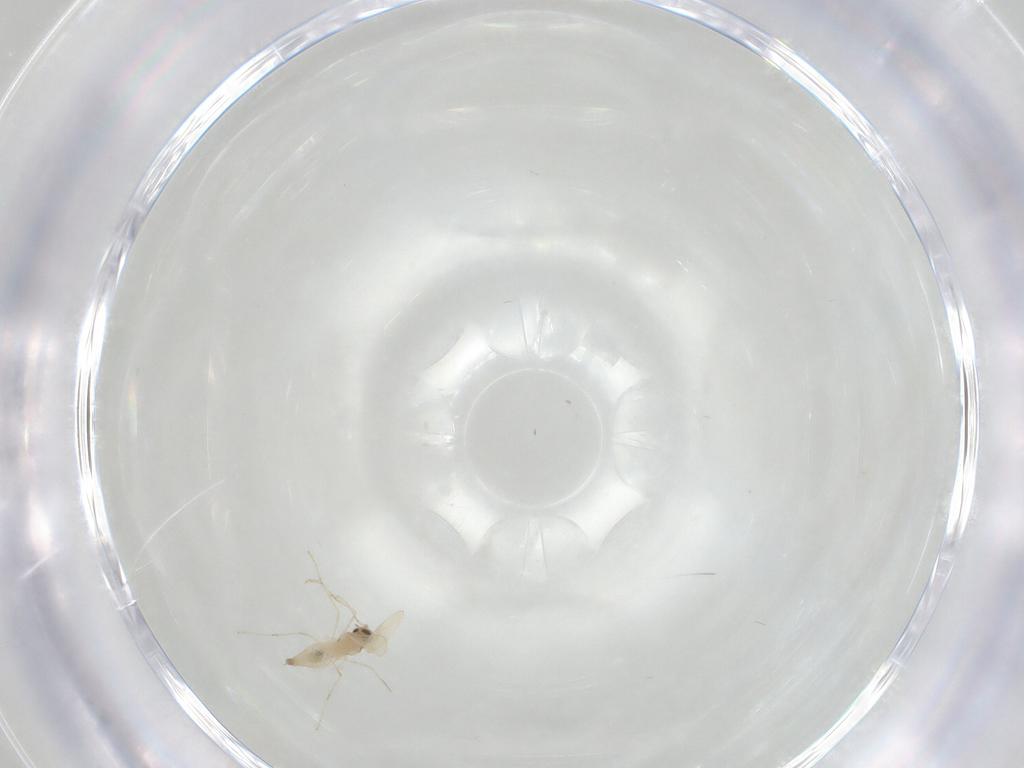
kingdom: Animalia
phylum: Arthropoda
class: Insecta
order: Diptera
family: Cecidomyiidae
